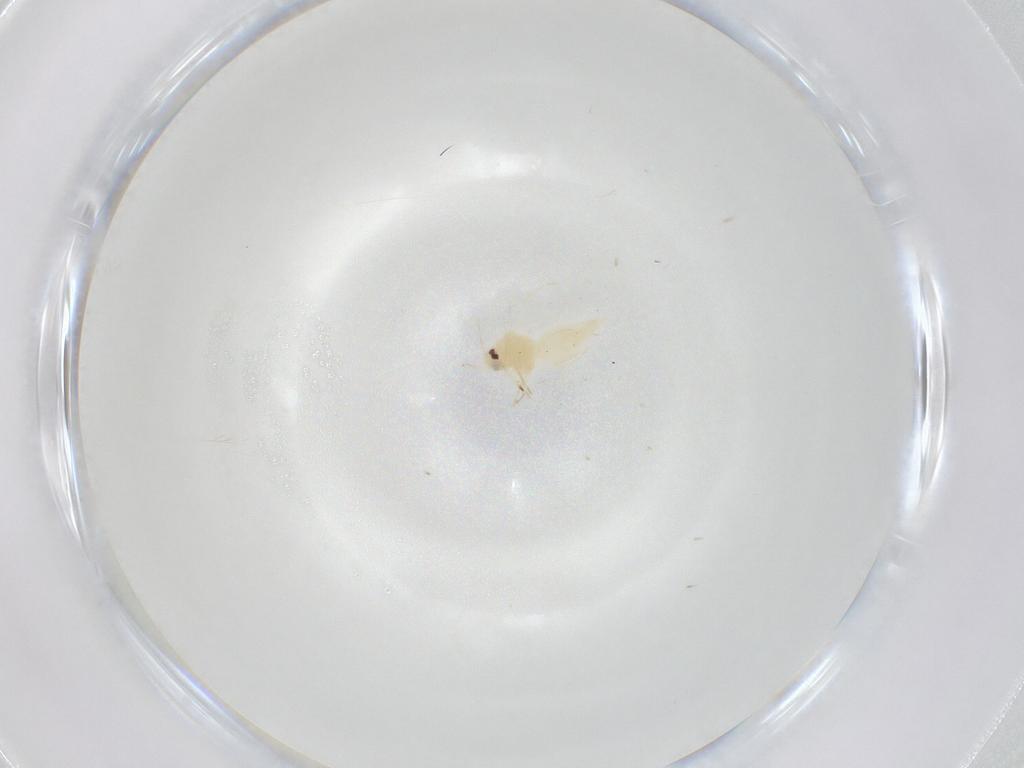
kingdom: Animalia
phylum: Arthropoda
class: Insecta
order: Hemiptera
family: Aleyrodidae
